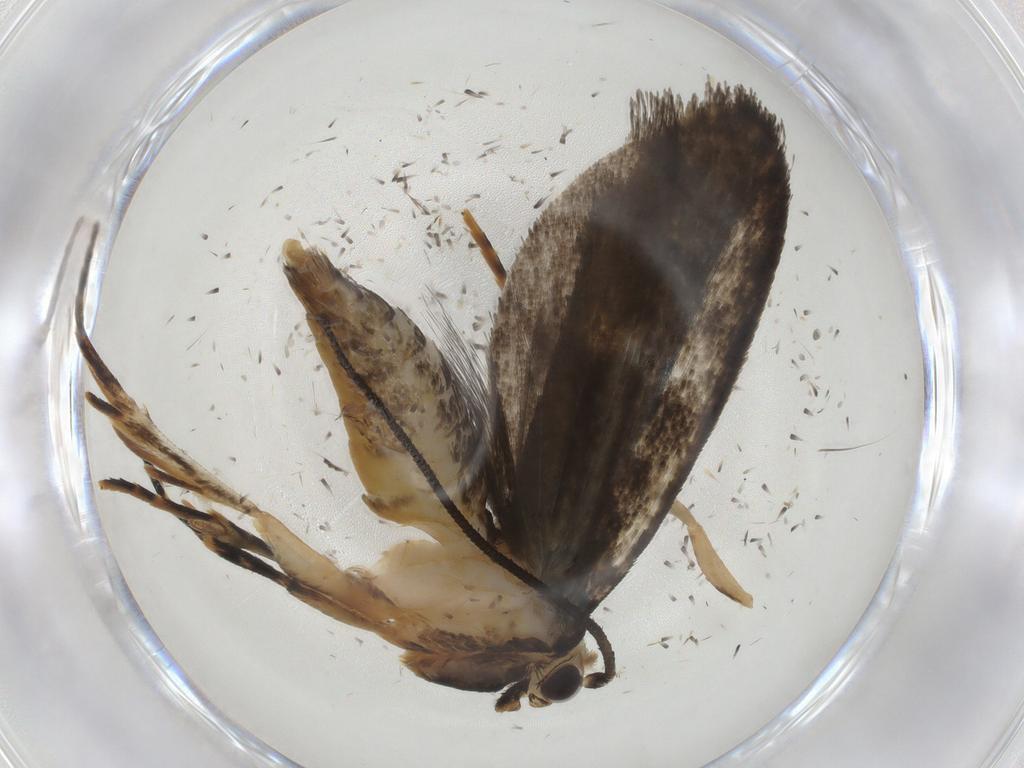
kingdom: Animalia
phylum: Arthropoda
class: Insecta
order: Lepidoptera
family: Tineidae
